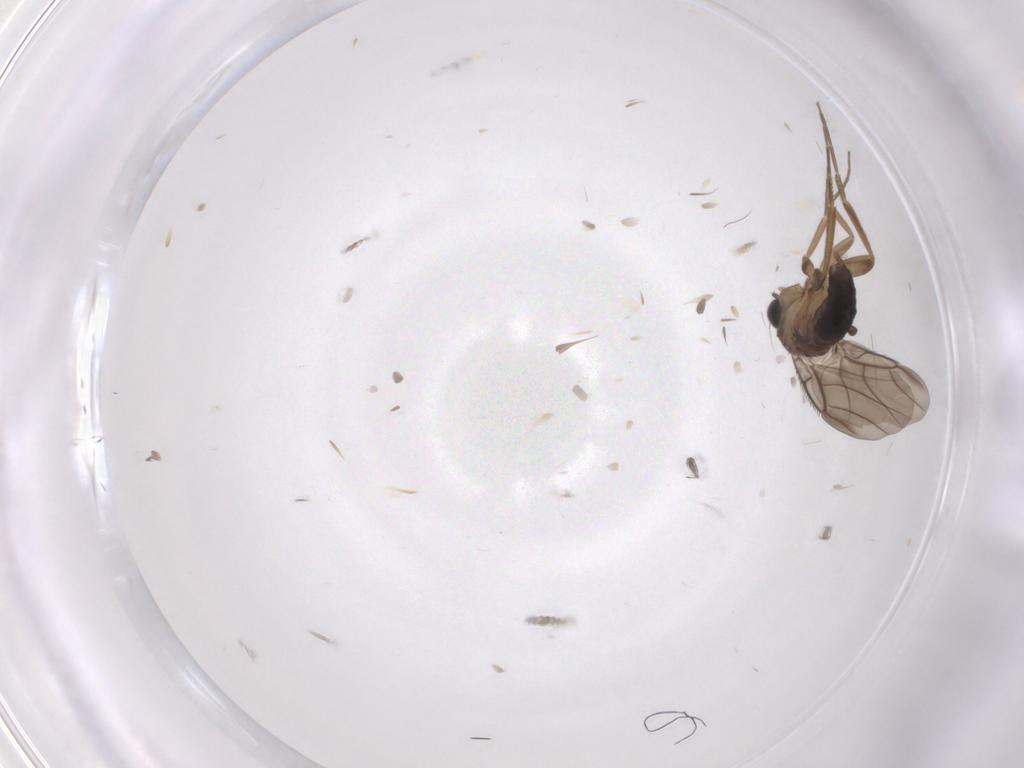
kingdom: Animalia
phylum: Arthropoda
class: Insecta
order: Diptera
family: Phoridae
